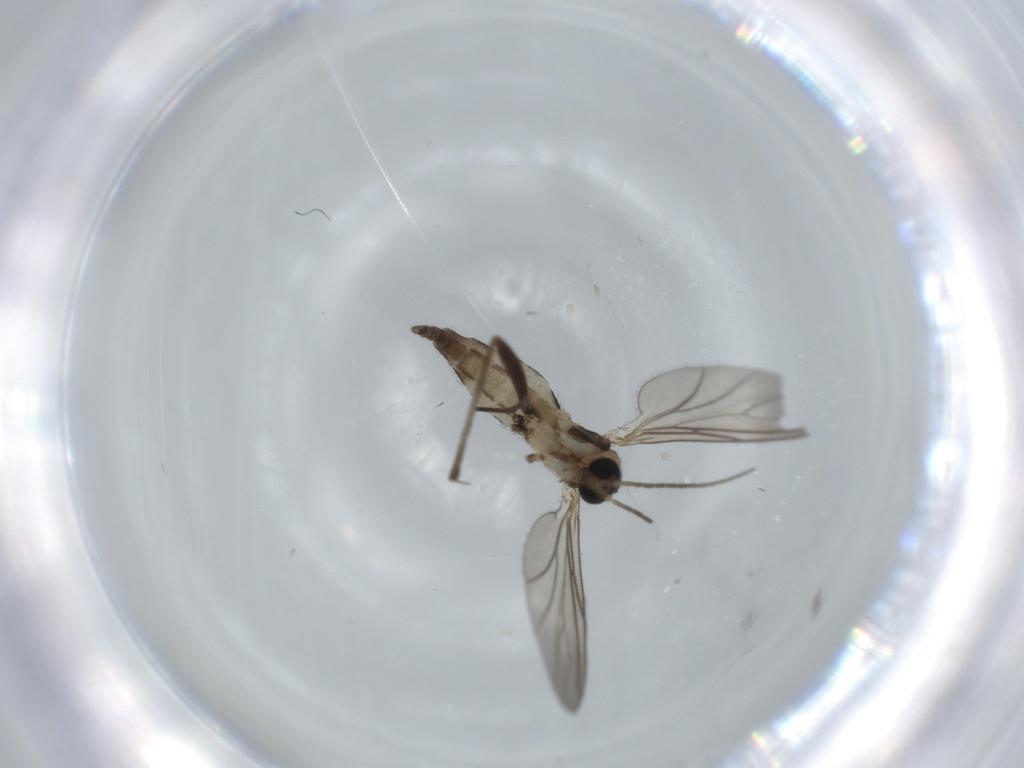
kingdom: Animalia
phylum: Arthropoda
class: Insecta
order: Diptera
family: Sciaridae
